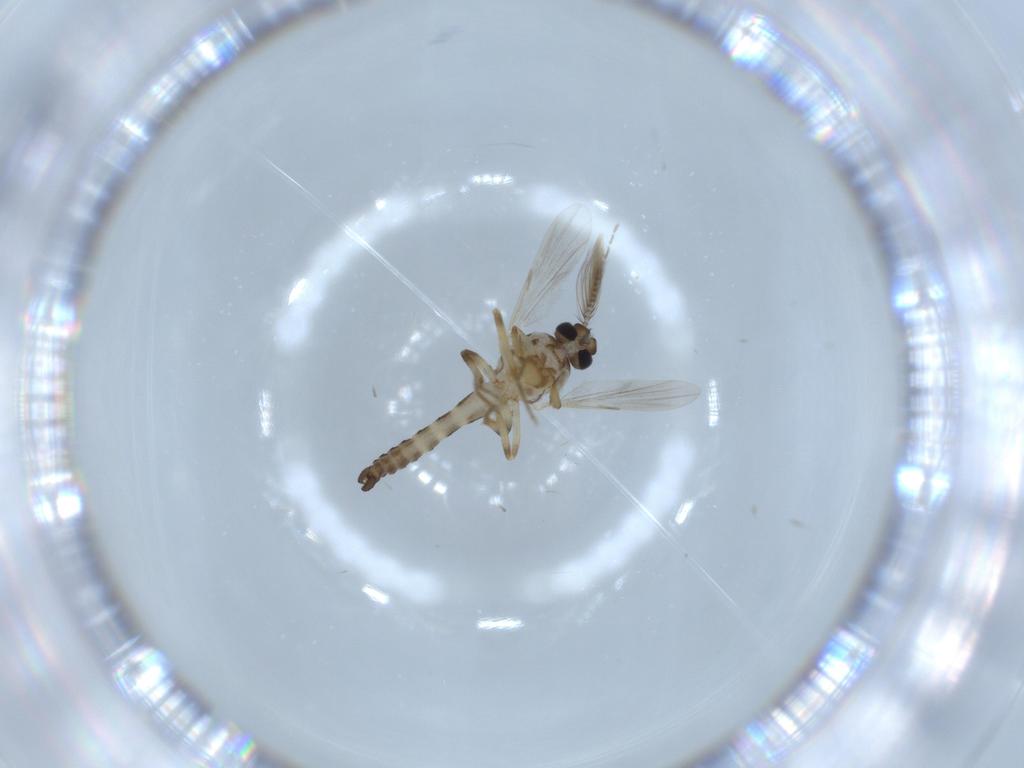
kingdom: Animalia
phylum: Arthropoda
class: Insecta
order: Diptera
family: Ceratopogonidae
